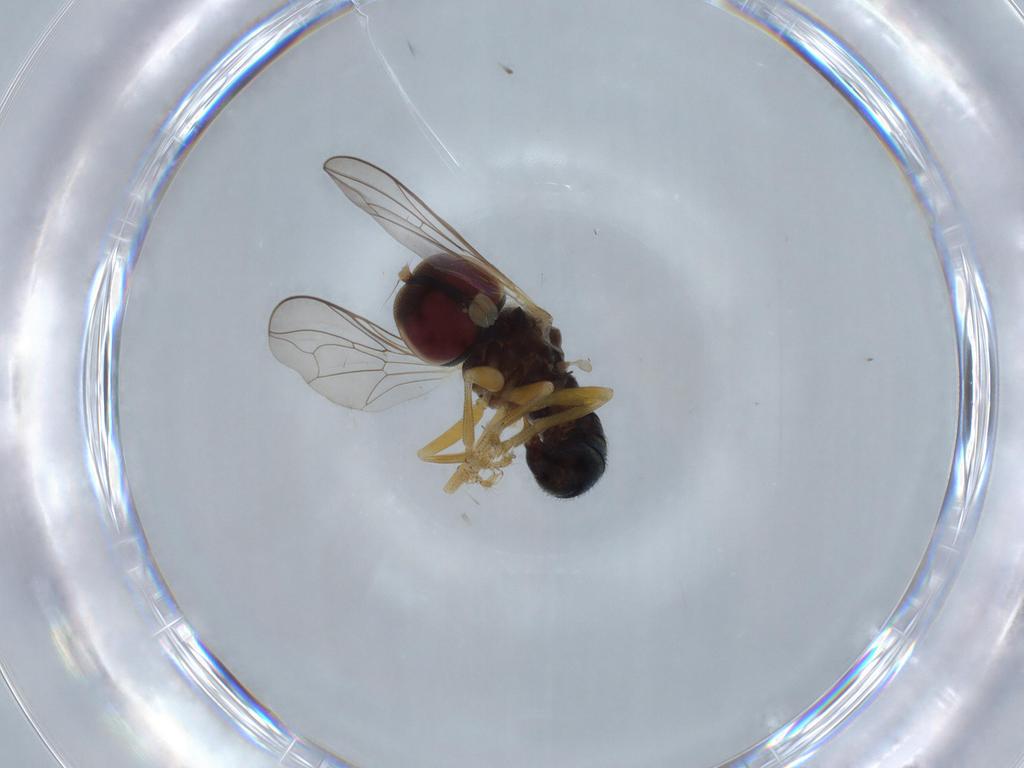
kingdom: Animalia
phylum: Arthropoda
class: Insecta
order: Diptera
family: Pipunculidae
